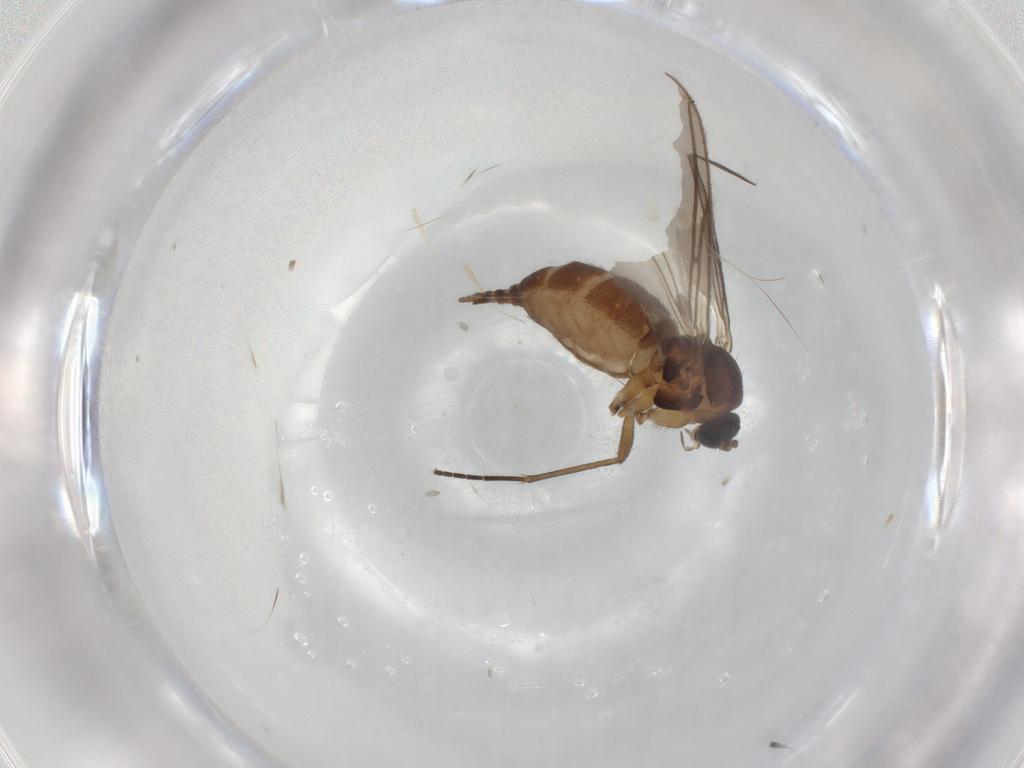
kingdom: Animalia
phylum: Arthropoda
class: Insecta
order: Diptera
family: Sciaridae
